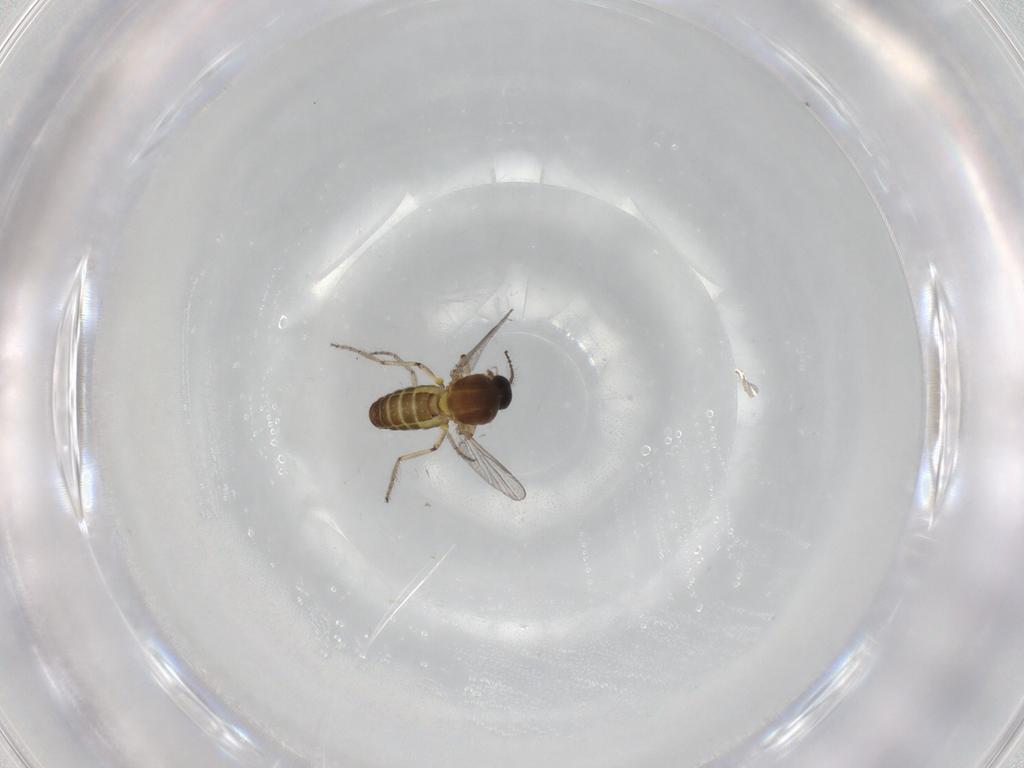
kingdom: Animalia
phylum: Arthropoda
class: Insecta
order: Diptera
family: Ceratopogonidae
